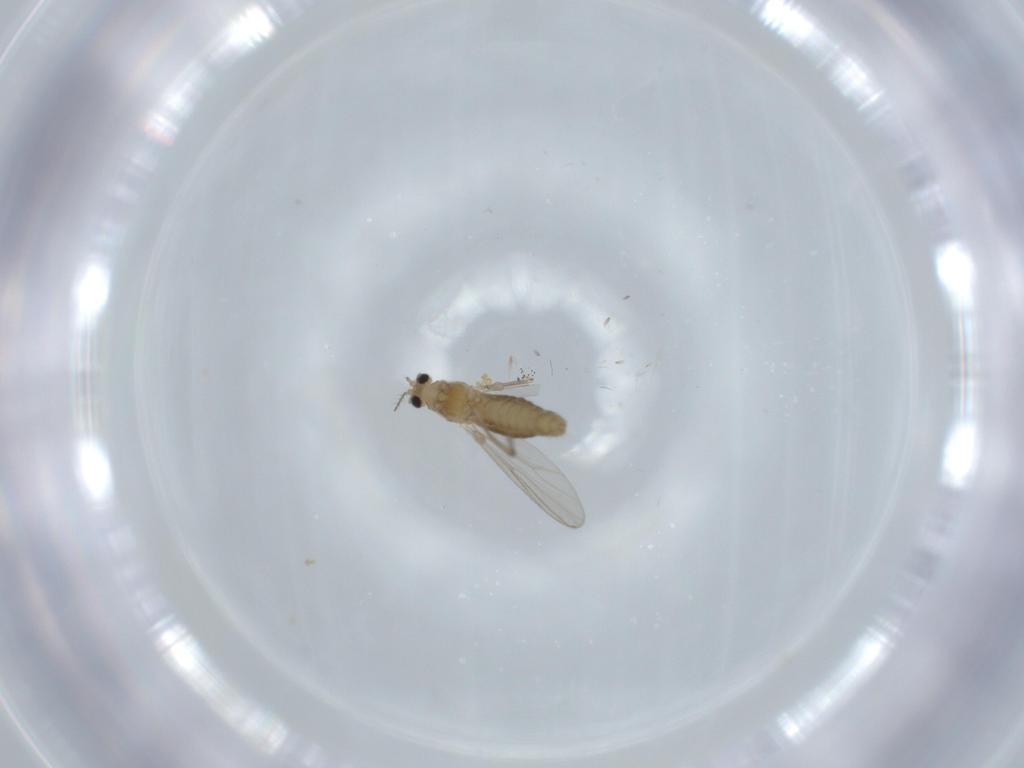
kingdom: Animalia
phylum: Arthropoda
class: Insecta
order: Diptera
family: Chironomidae
